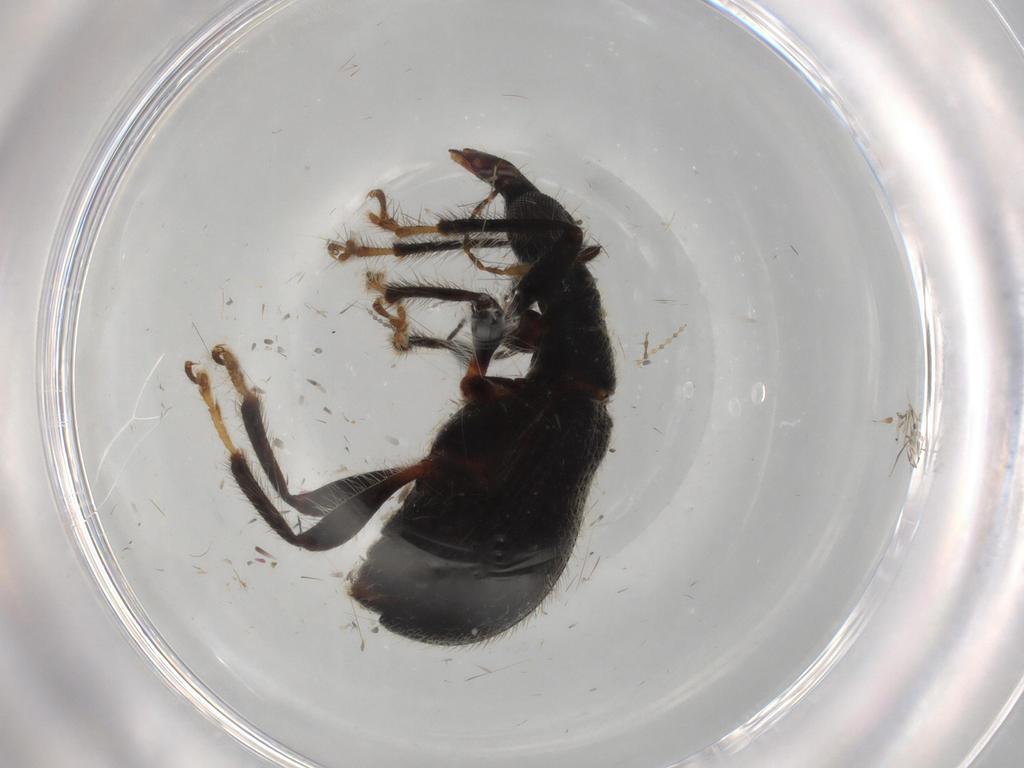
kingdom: Animalia
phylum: Arthropoda
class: Insecta
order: Coleoptera
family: Attelabidae
